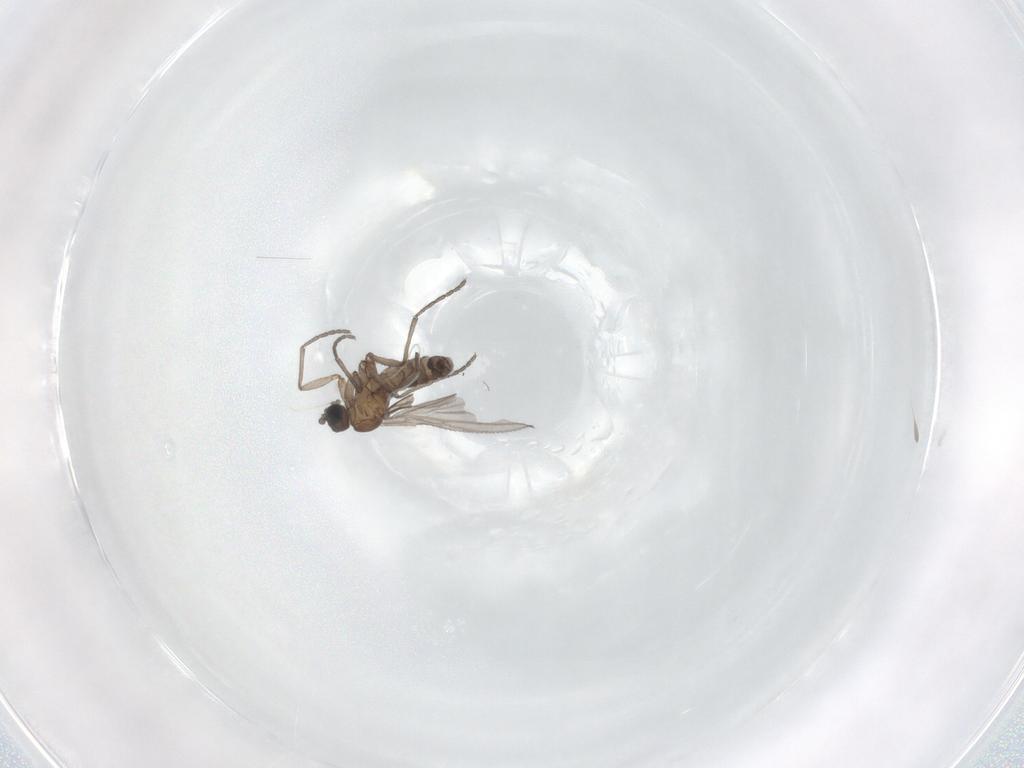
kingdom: Animalia
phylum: Arthropoda
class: Insecta
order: Diptera
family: Sciaridae
